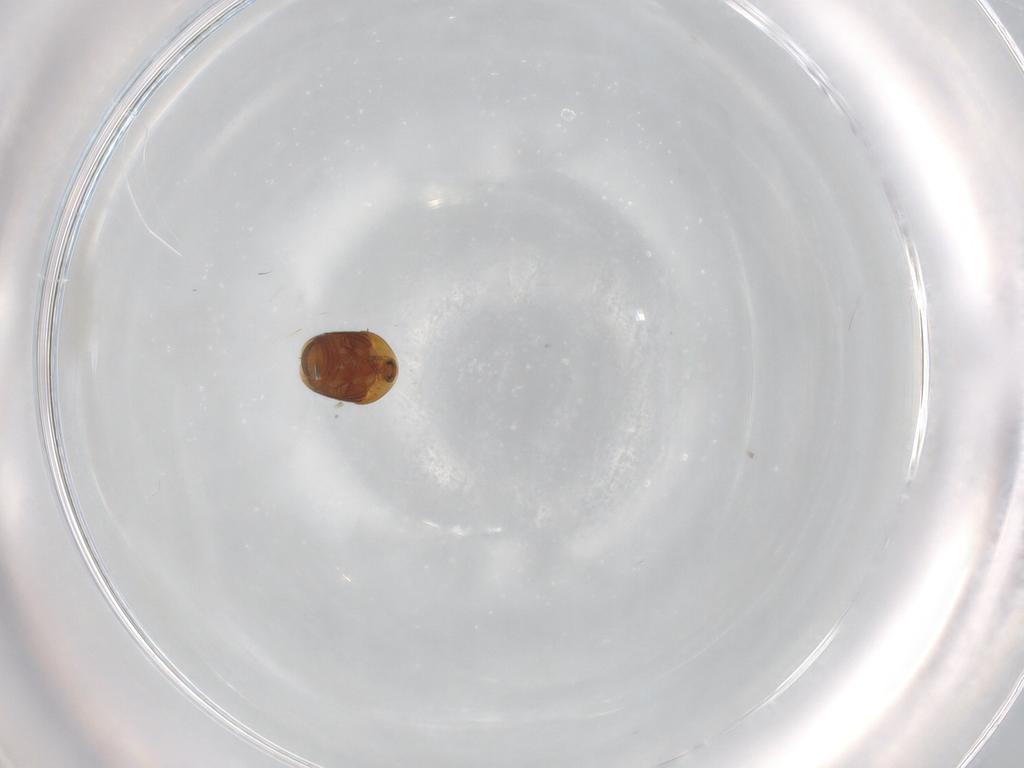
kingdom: Animalia
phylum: Arthropoda
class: Insecta
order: Coleoptera
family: Corylophidae
